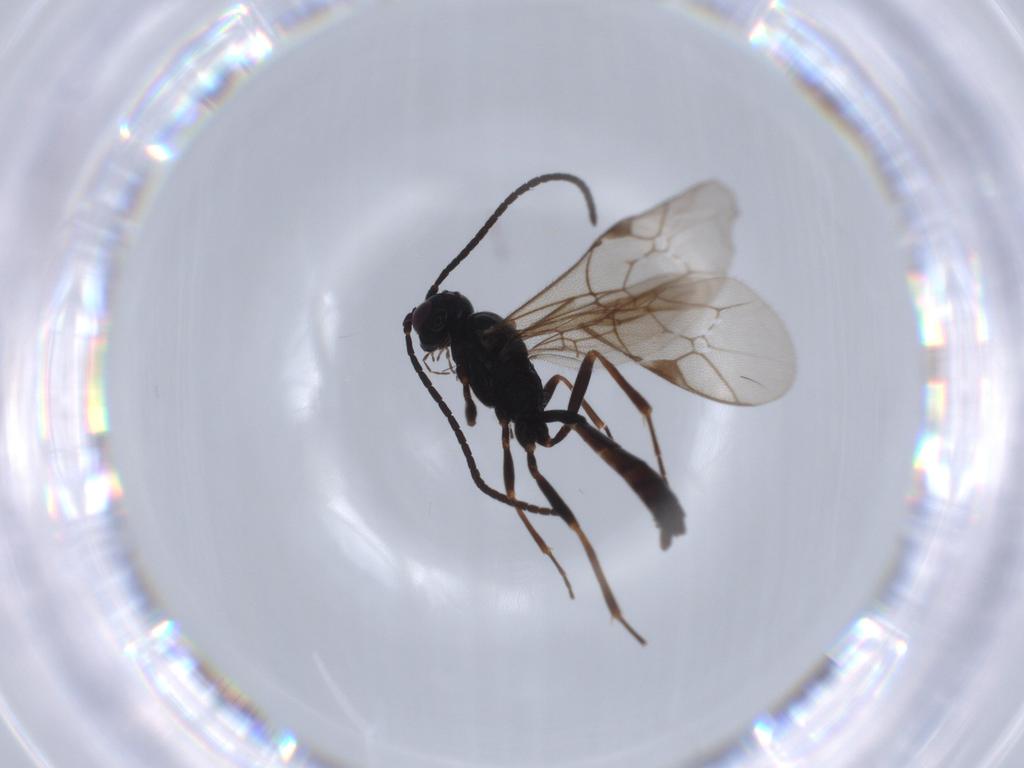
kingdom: Animalia
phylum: Arthropoda
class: Insecta
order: Hymenoptera
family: Ichneumonidae
